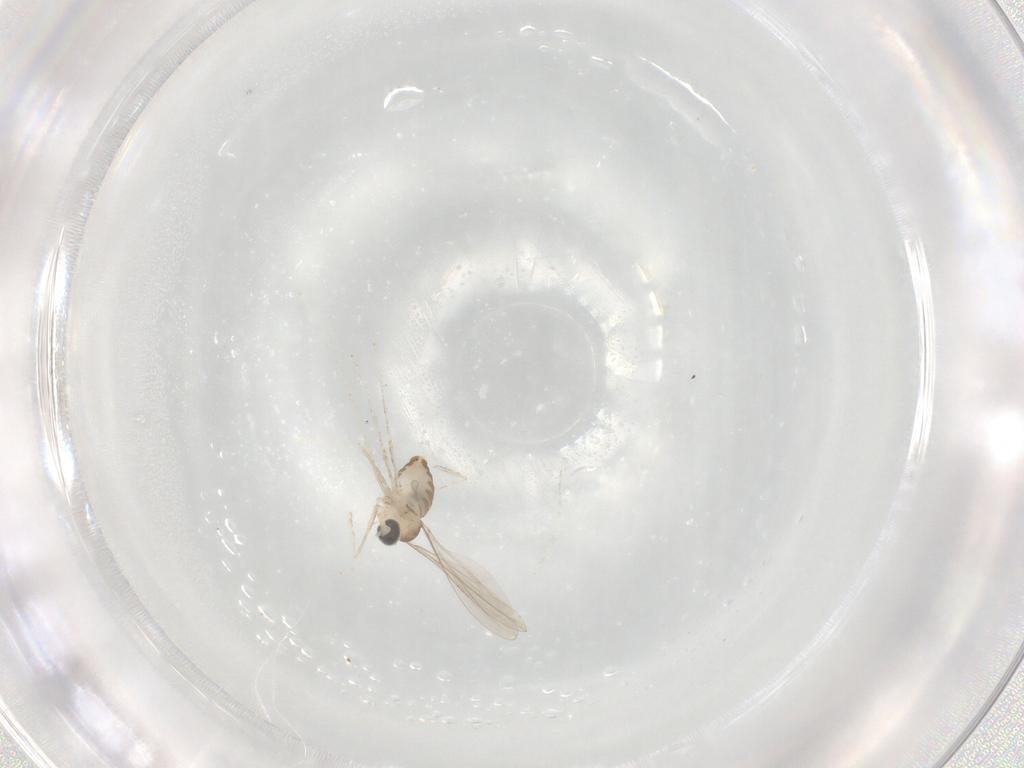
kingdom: Animalia
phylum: Arthropoda
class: Insecta
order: Diptera
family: Cecidomyiidae
